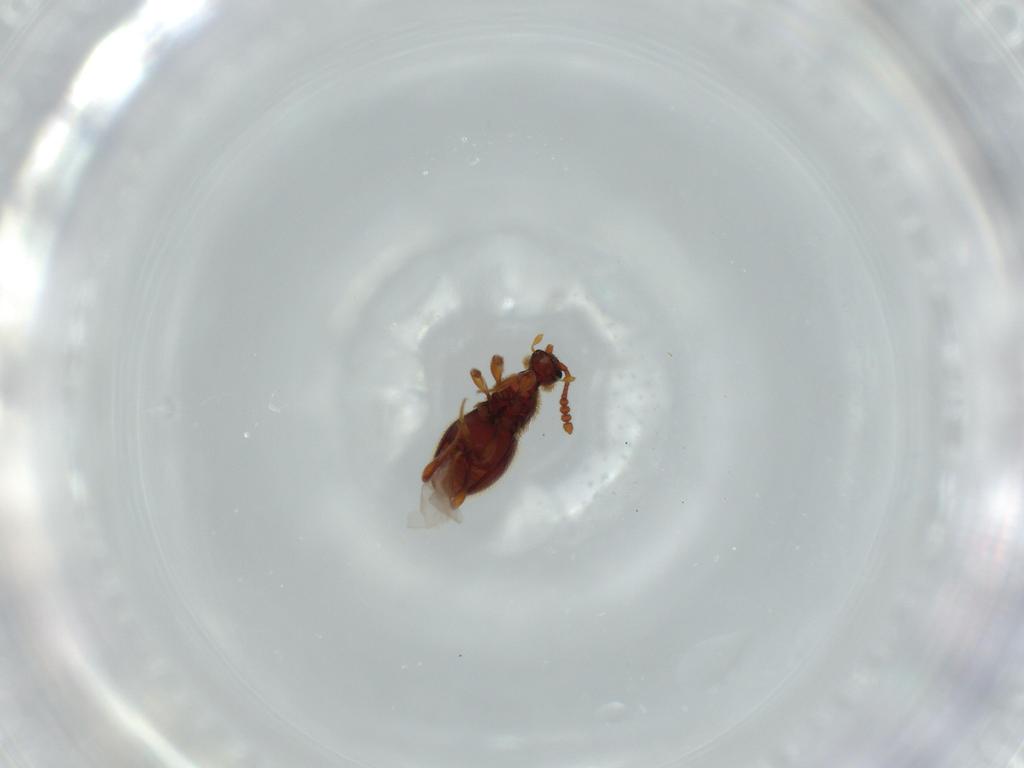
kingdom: Animalia
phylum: Arthropoda
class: Insecta
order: Coleoptera
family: Staphylinidae
